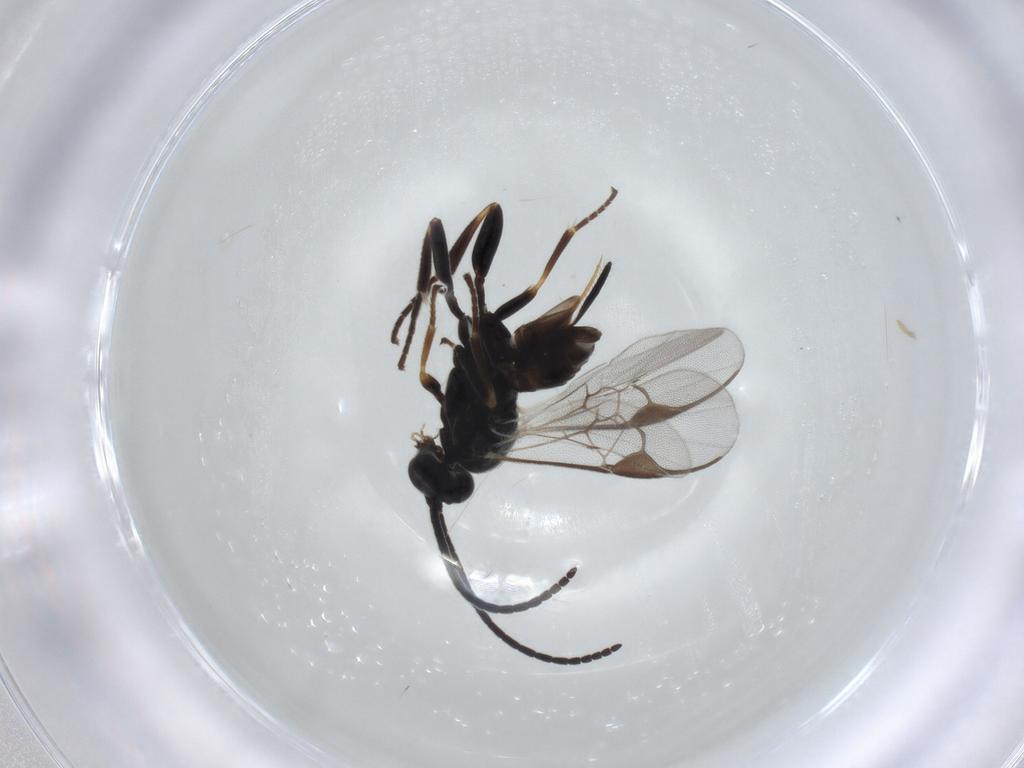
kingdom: Animalia
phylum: Arthropoda
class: Insecta
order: Hymenoptera
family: Braconidae
